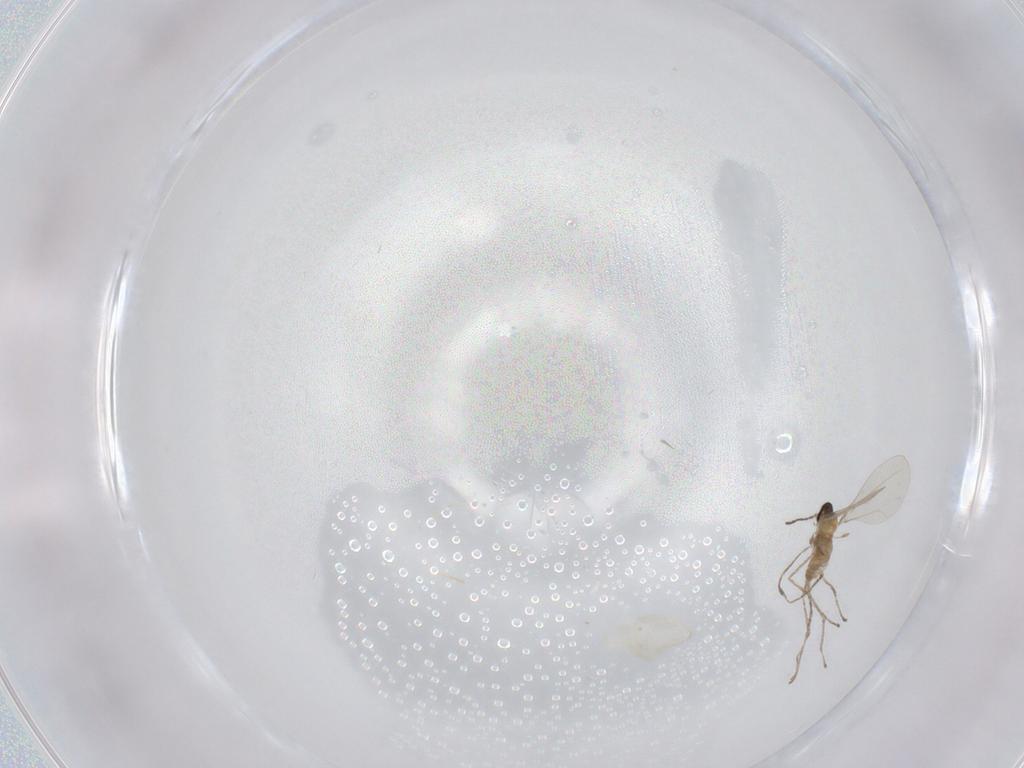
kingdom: Animalia
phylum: Arthropoda
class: Insecta
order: Diptera
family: Cecidomyiidae
